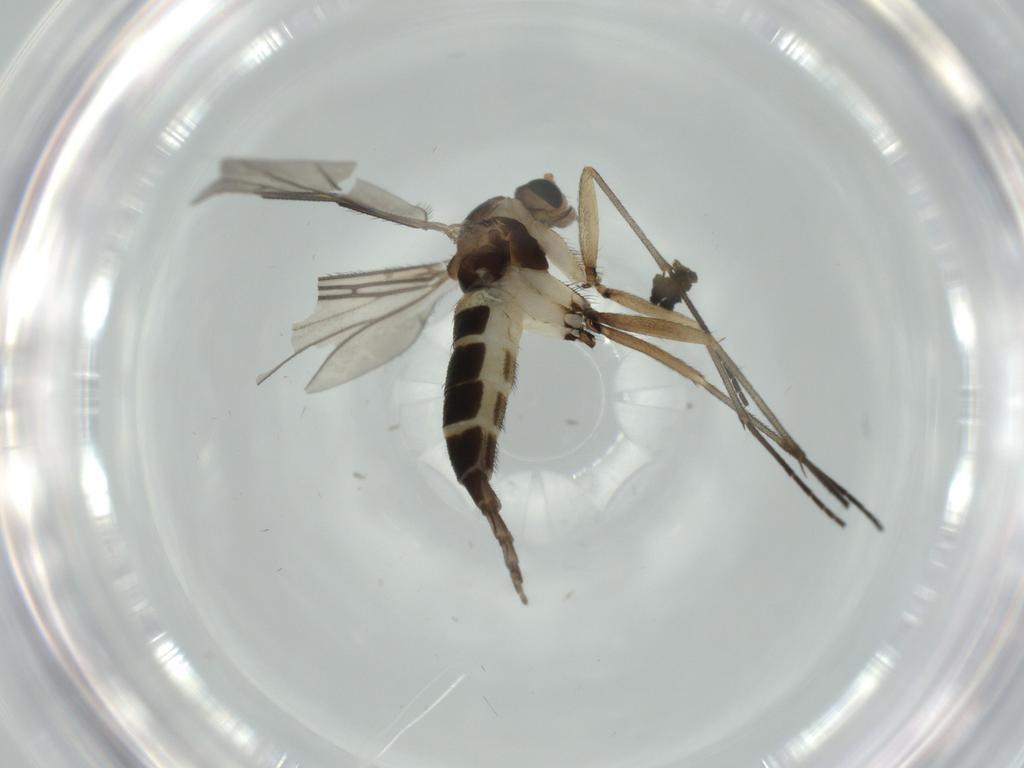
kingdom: Animalia
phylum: Arthropoda
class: Insecta
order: Diptera
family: Sciaridae
